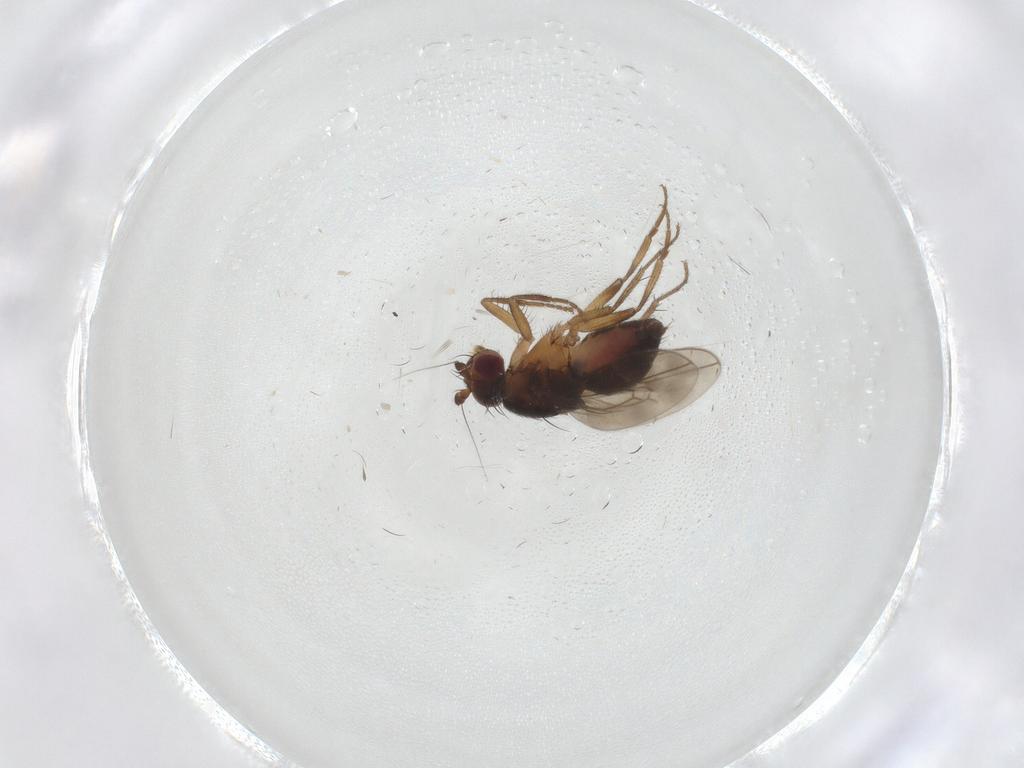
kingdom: Animalia
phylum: Arthropoda
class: Insecta
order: Diptera
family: Sphaeroceridae
